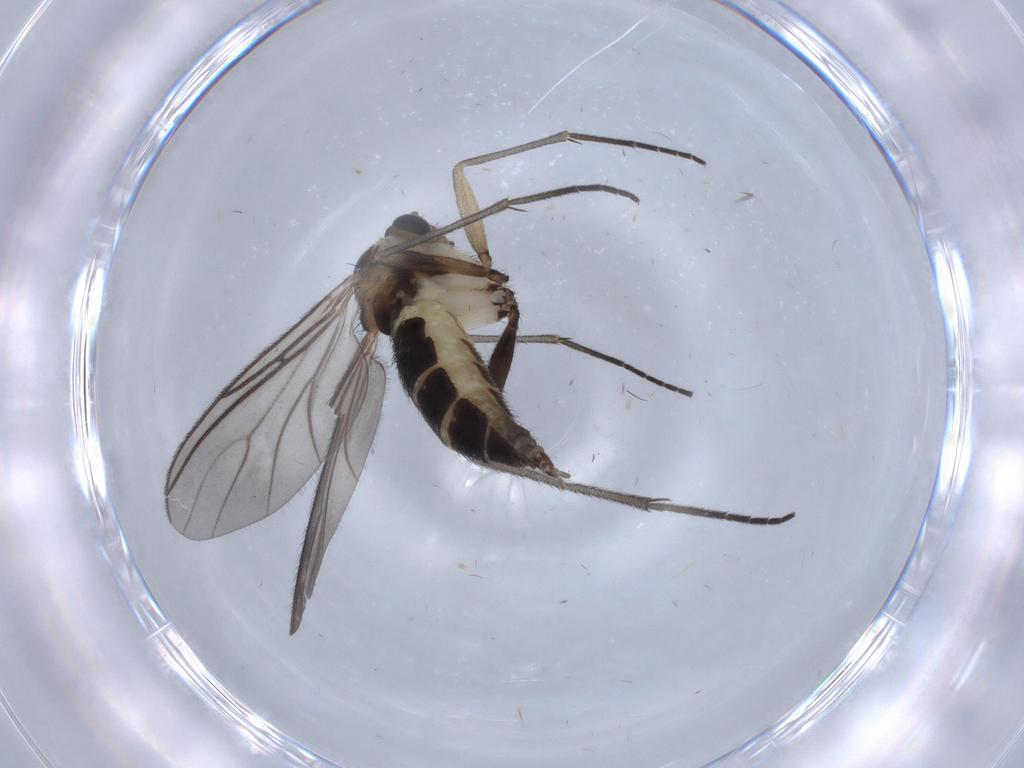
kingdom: Animalia
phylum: Arthropoda
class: Insecta
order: Diptera
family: Sciaridae
